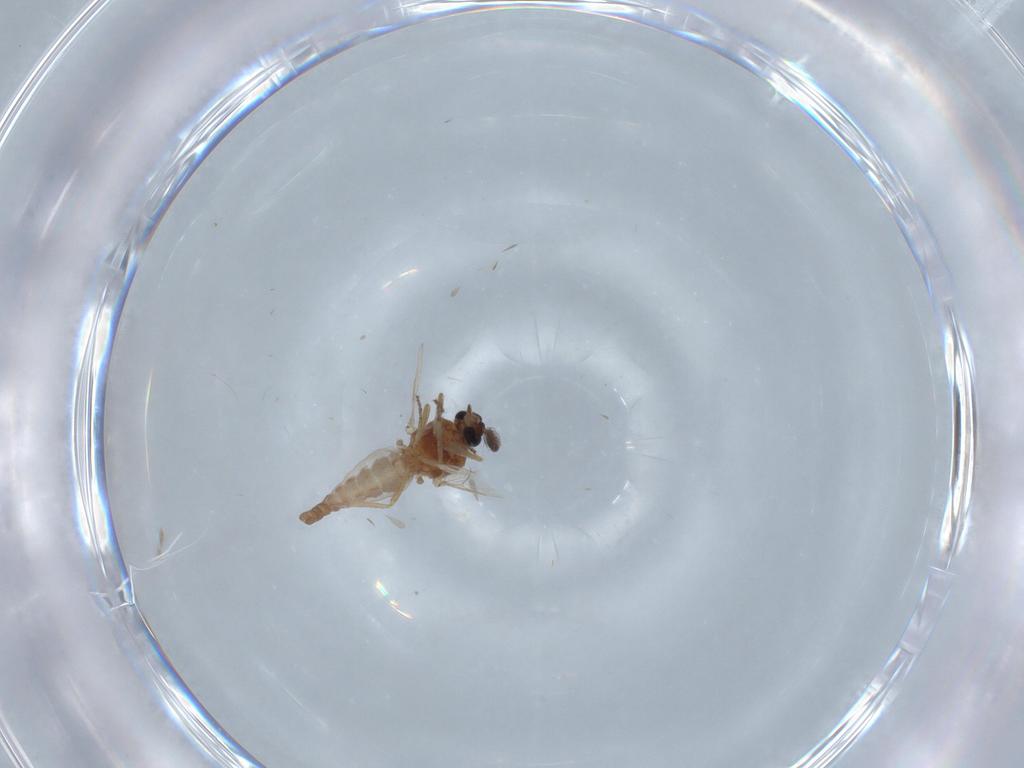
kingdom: Animalia
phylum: Arthropoda
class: Insecta
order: Diptera
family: Ceratopogonidae
